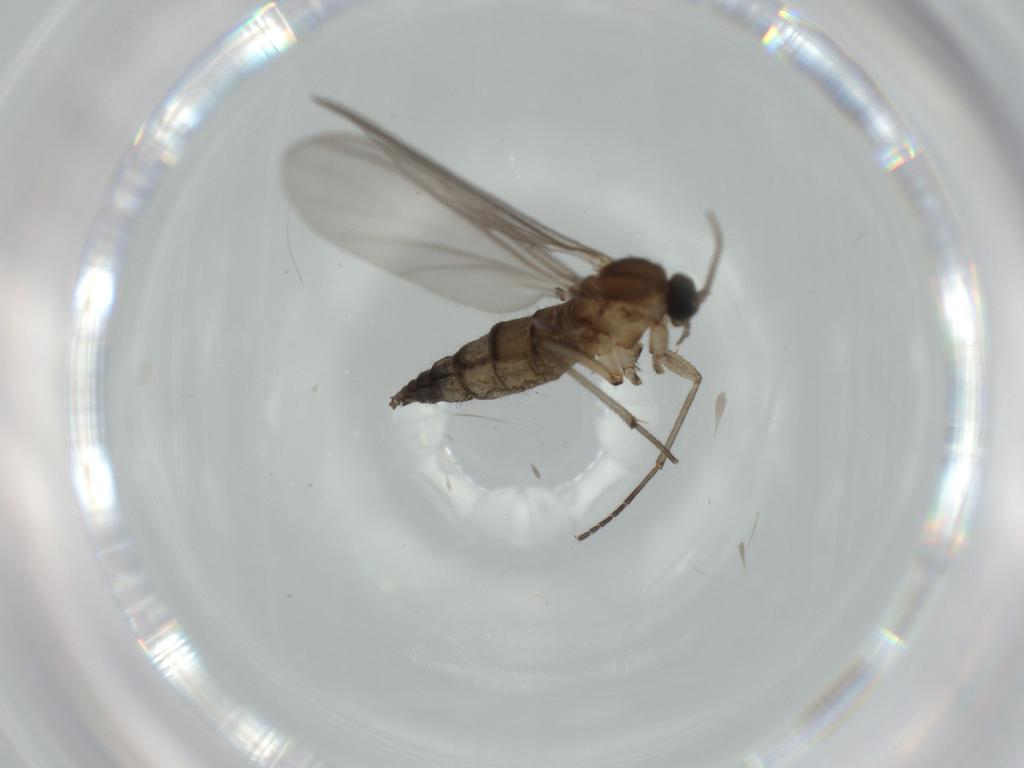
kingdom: Animalia
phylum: Arthropoda
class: Insecta
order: Diptera
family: Sciaridae
